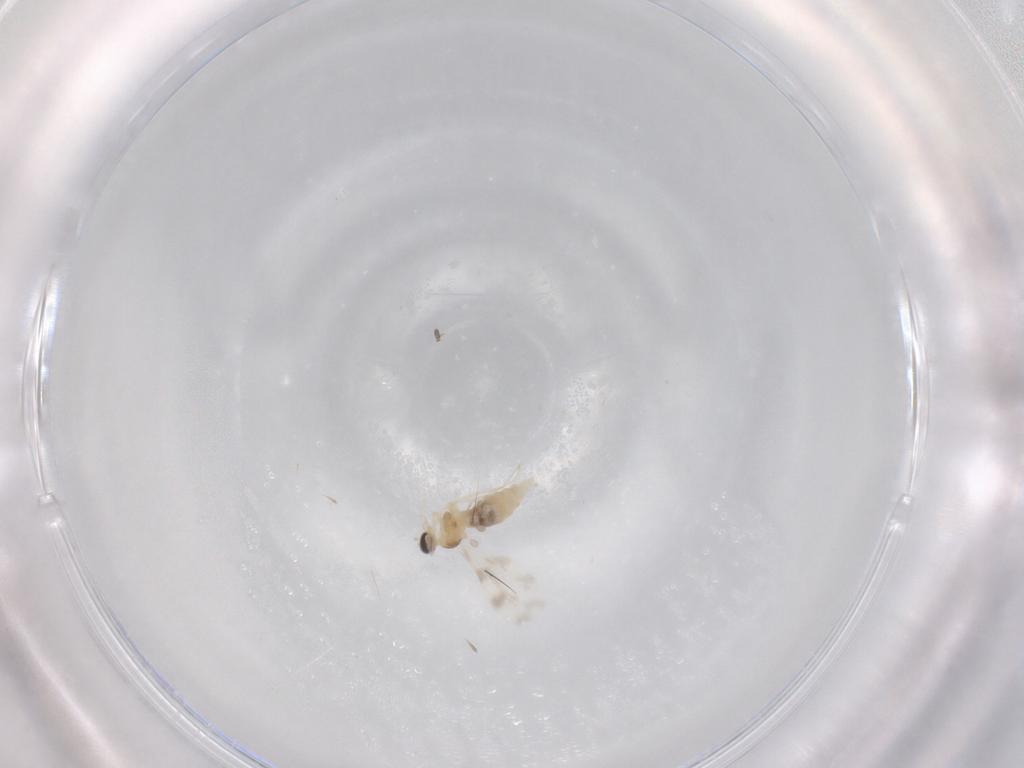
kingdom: Animalia
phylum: Arthropoda
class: Insecta
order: Diptera
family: Cecidomyiidae
